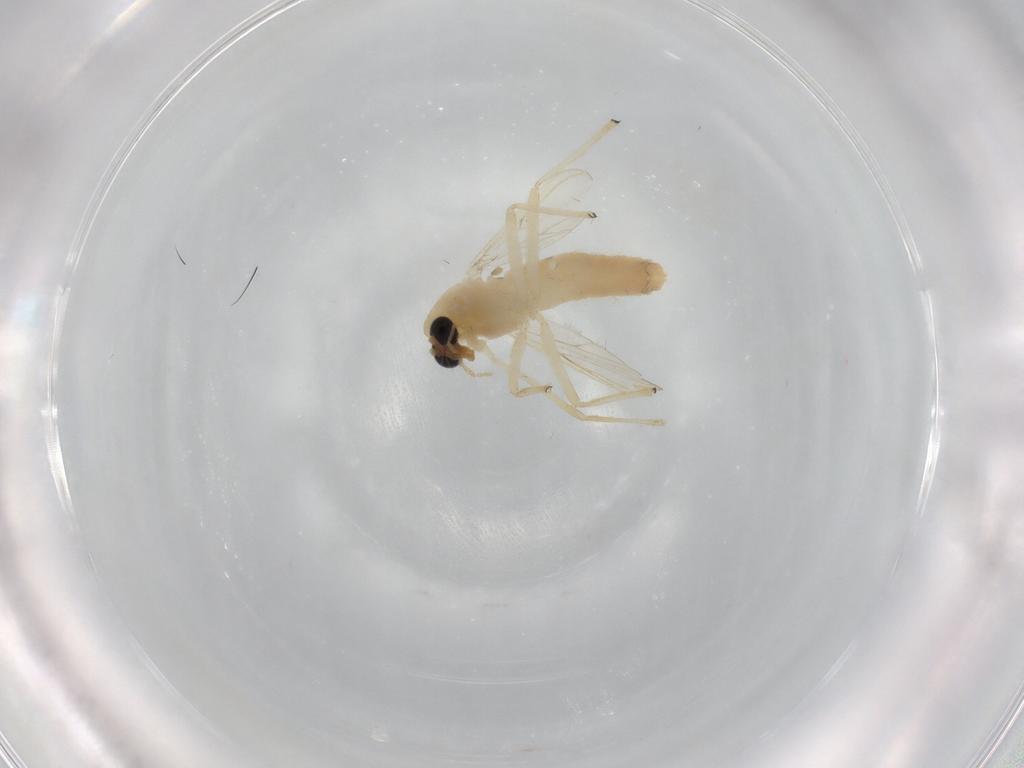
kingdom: Animalia
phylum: Arthropoda
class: Insecta
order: Diptera
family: Chironomidae
